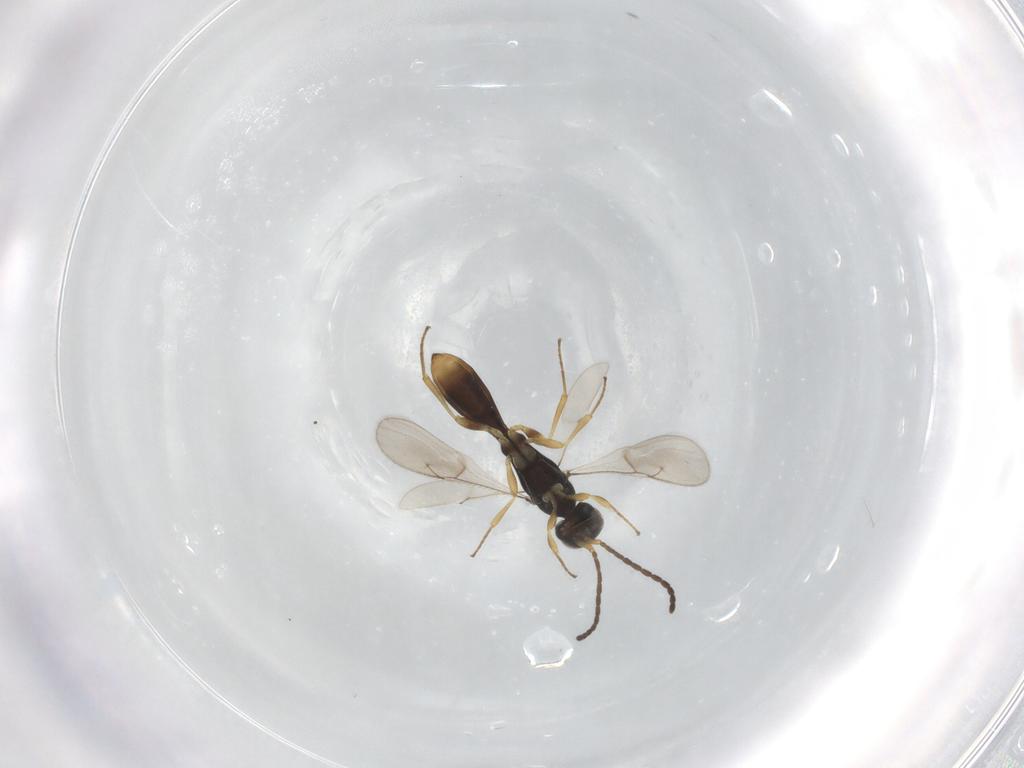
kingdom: Animalia
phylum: Arthropoda
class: Insecta
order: Hymenoptera
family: Scelionidae
